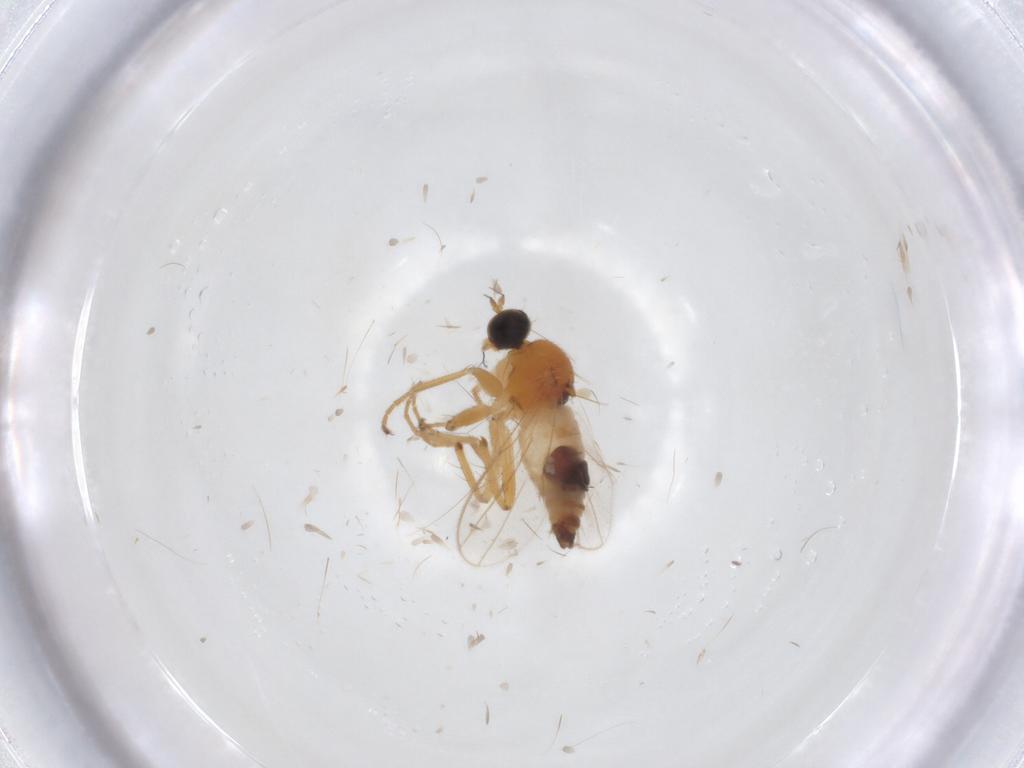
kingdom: Animalia
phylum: Arthropoda
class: Insecta
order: Diptera
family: Hybotidae
